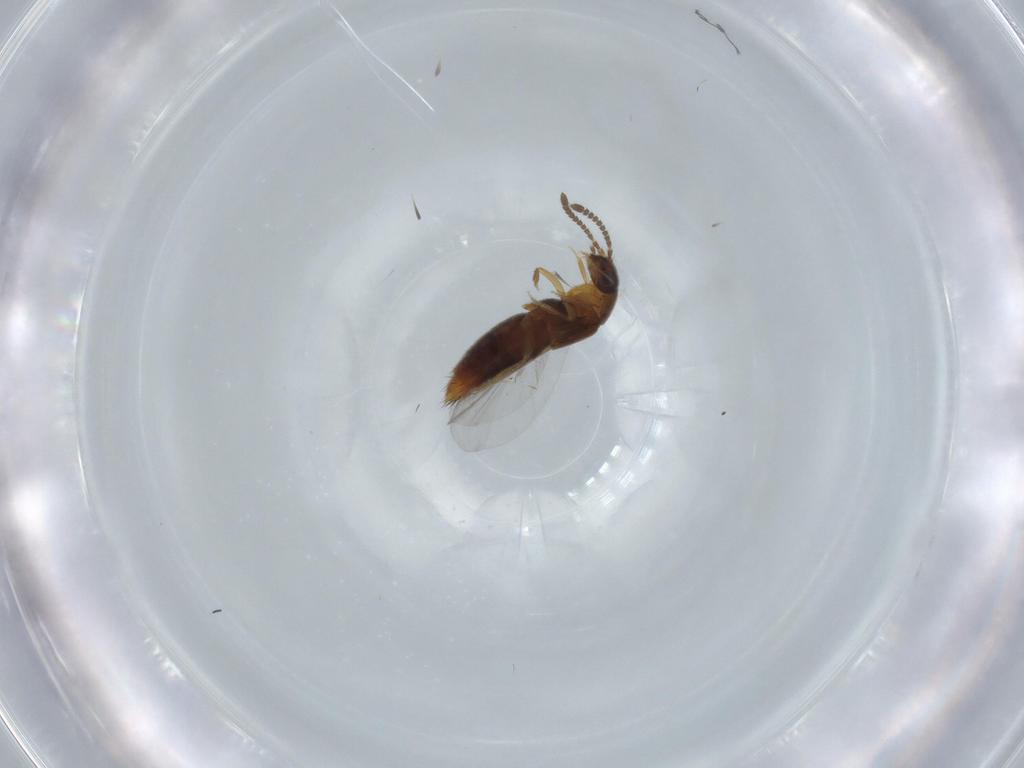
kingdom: Animalia
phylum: Arthropoda
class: Insecta
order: Coleoptera
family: Staphylinidae
